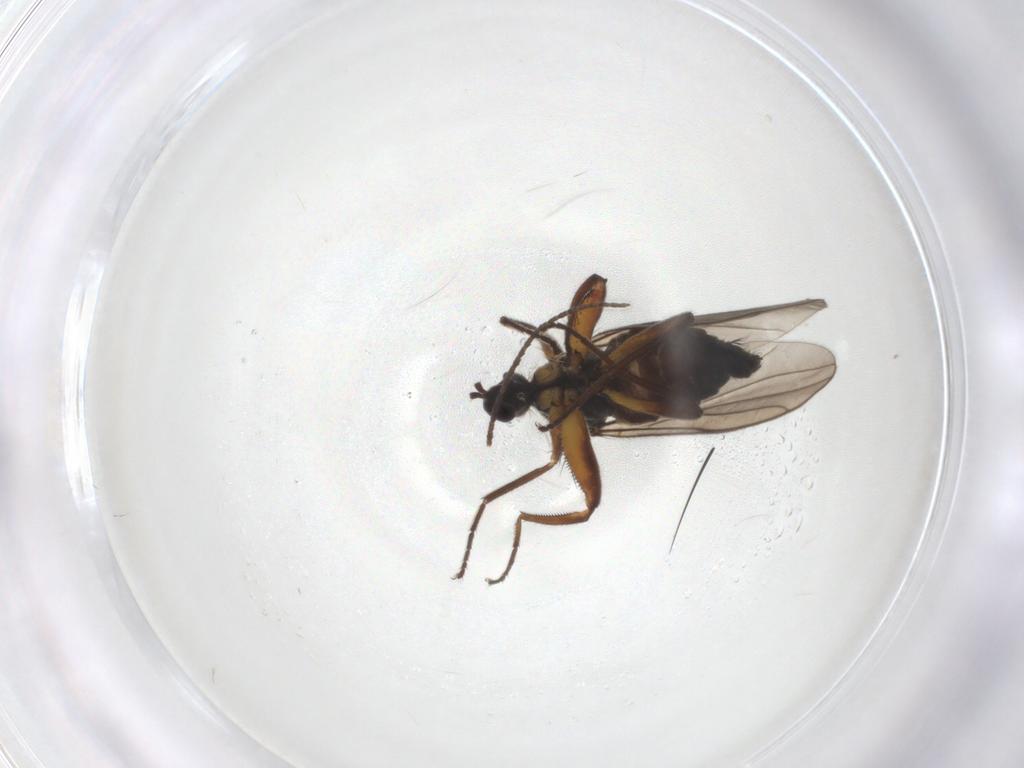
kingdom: Animalia
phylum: Arthropoda
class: Insecta
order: Diptera
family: Hybotidae
